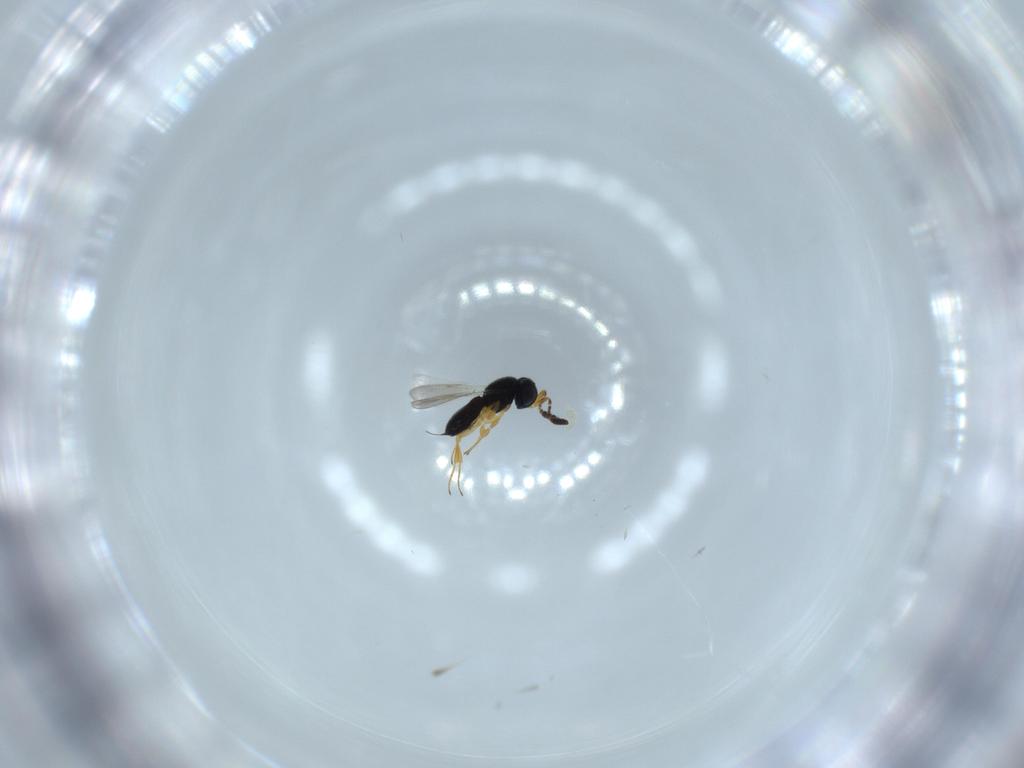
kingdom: Animalia
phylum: Arthropoda
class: Insecta
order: Hymenoptera
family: Scelionidae
